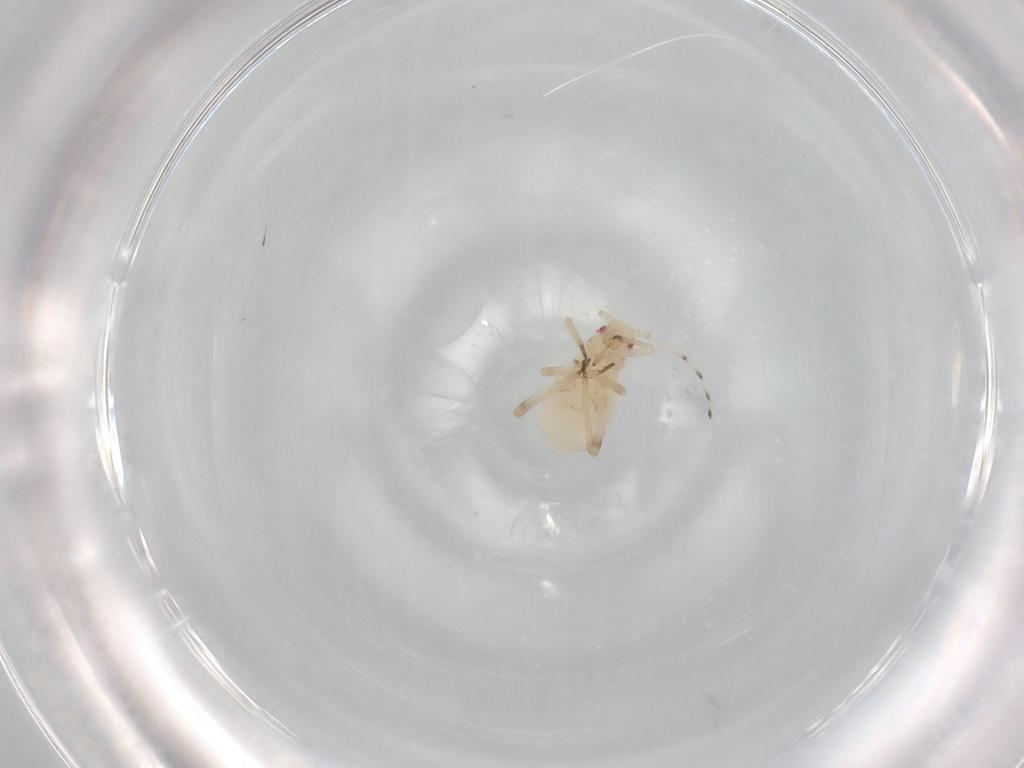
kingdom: Animalia
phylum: Arthropoda
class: Insecta
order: Hemiptera
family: Aphididae
